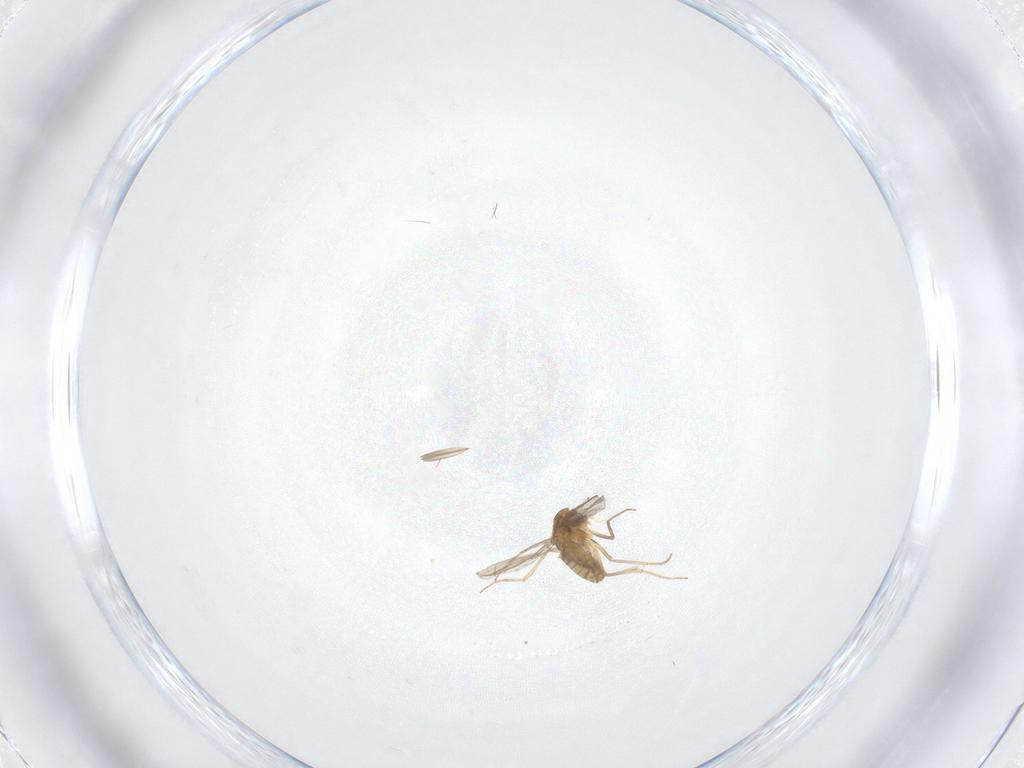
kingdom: Animalia
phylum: Arthropoda
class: Insecta
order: Diptera
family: Chironomidae
